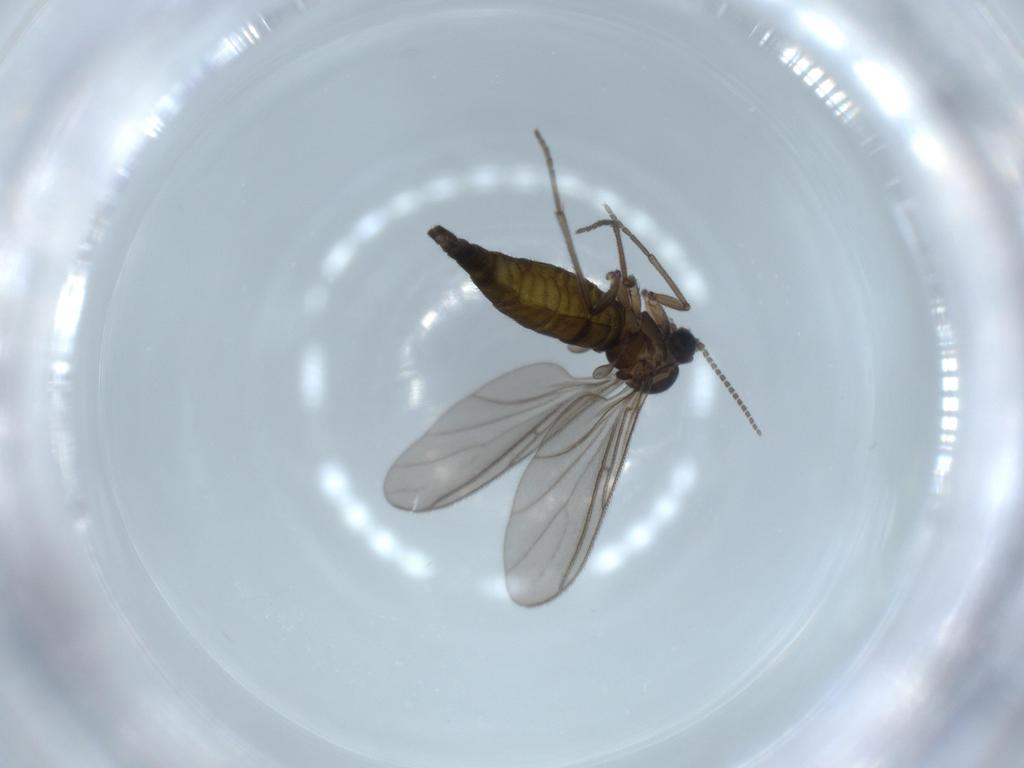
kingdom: Animalia
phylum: Arthropoda
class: Insecta
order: Diptera
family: Sciaridae
